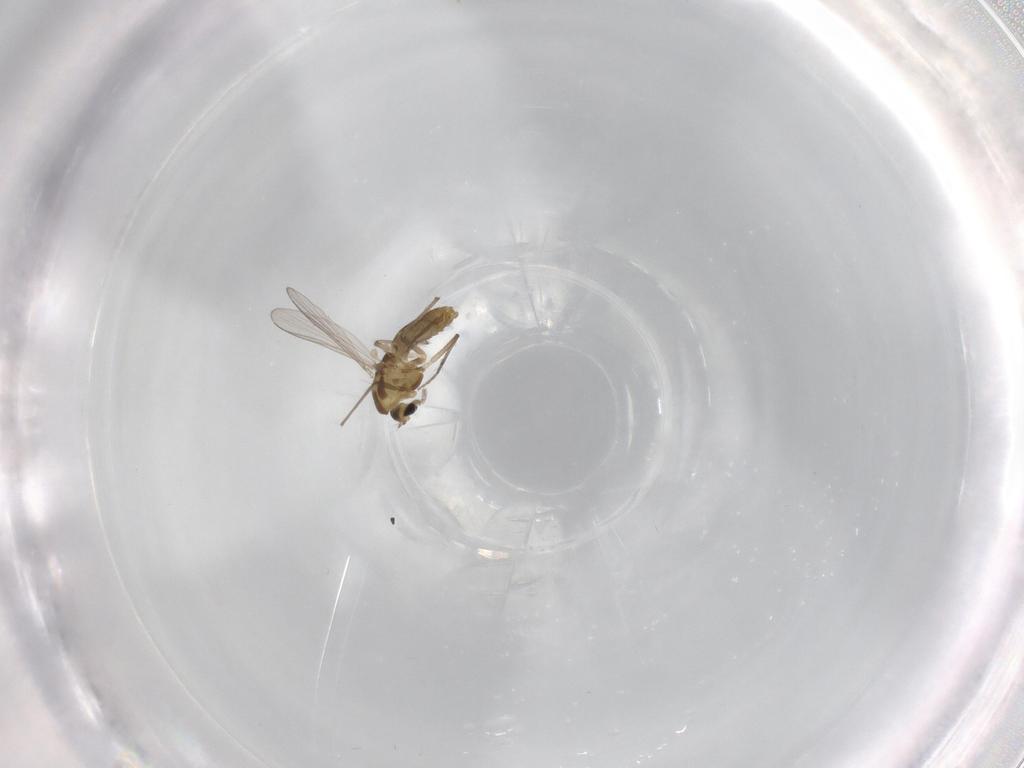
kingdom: Animalia
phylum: Arthropoda
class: Insecta
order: Diptera
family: Chironomidae
